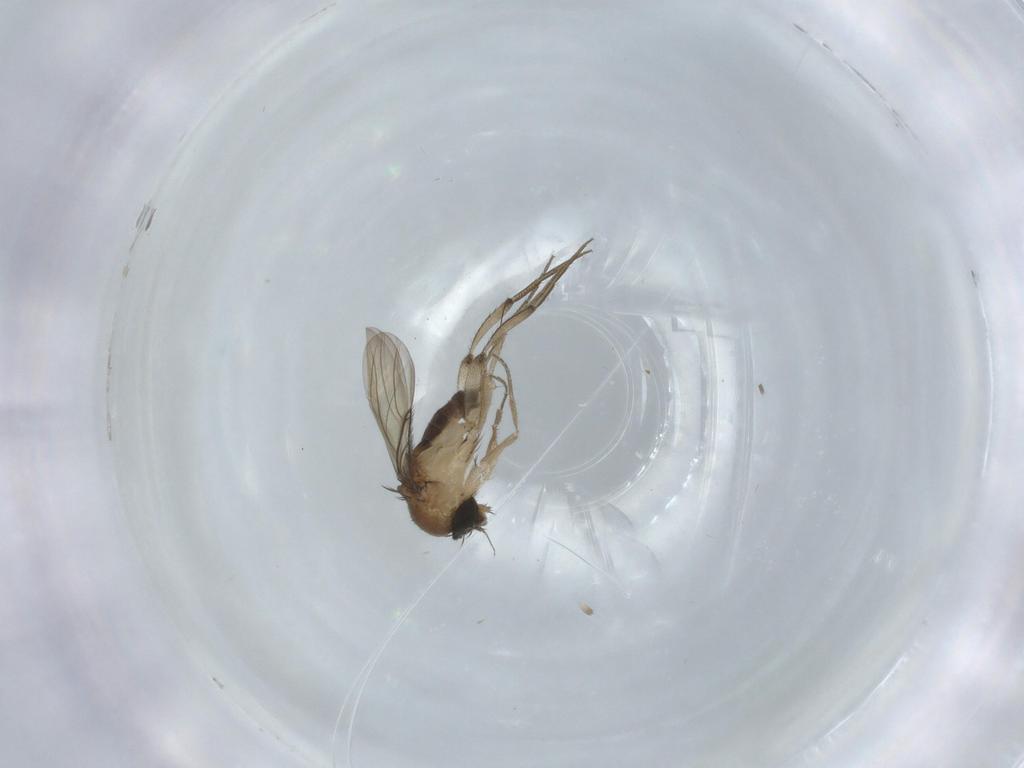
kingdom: Animalia
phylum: Arthropoda
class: Insecta
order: Diptera
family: Phoridae
